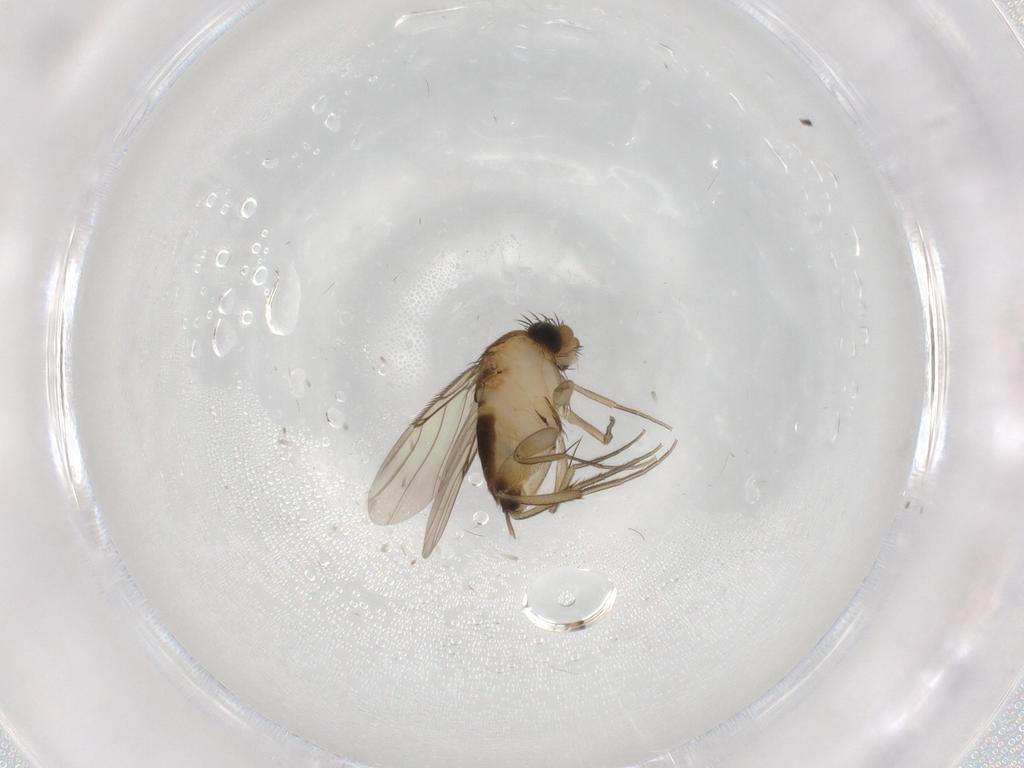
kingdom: Animalia
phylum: Arthropoda
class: Insecta
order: Diptera
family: Phoridae
